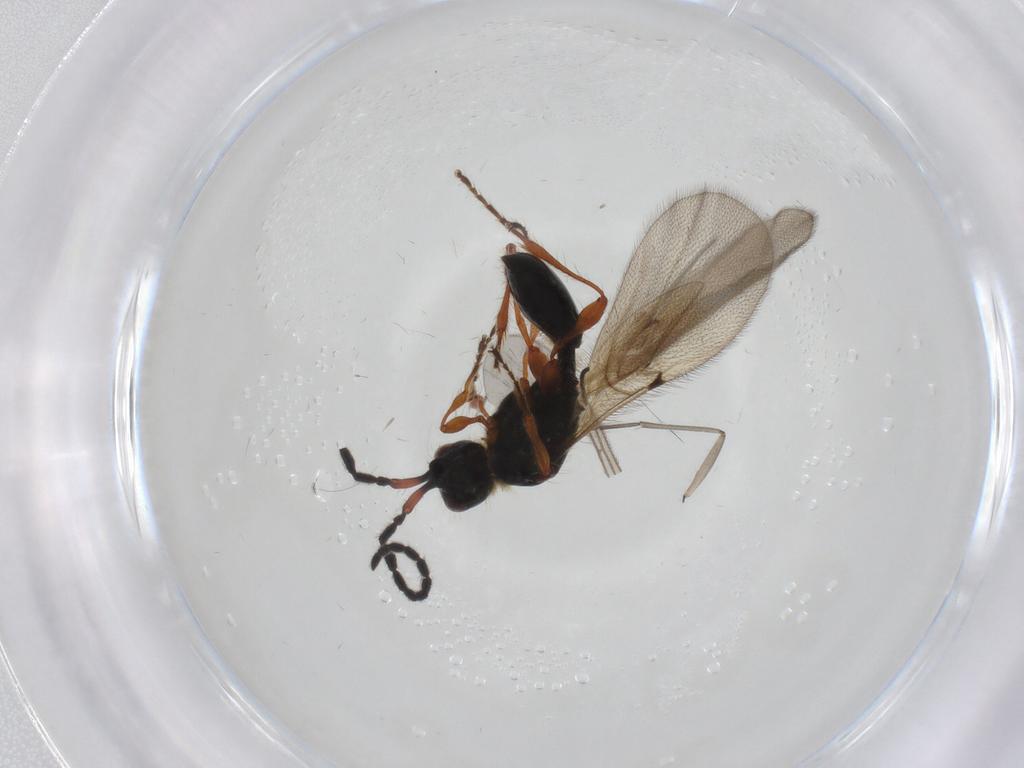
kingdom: Animalia
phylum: Arthropoda
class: Insecta
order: Hymenoptera
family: Diapriidae
